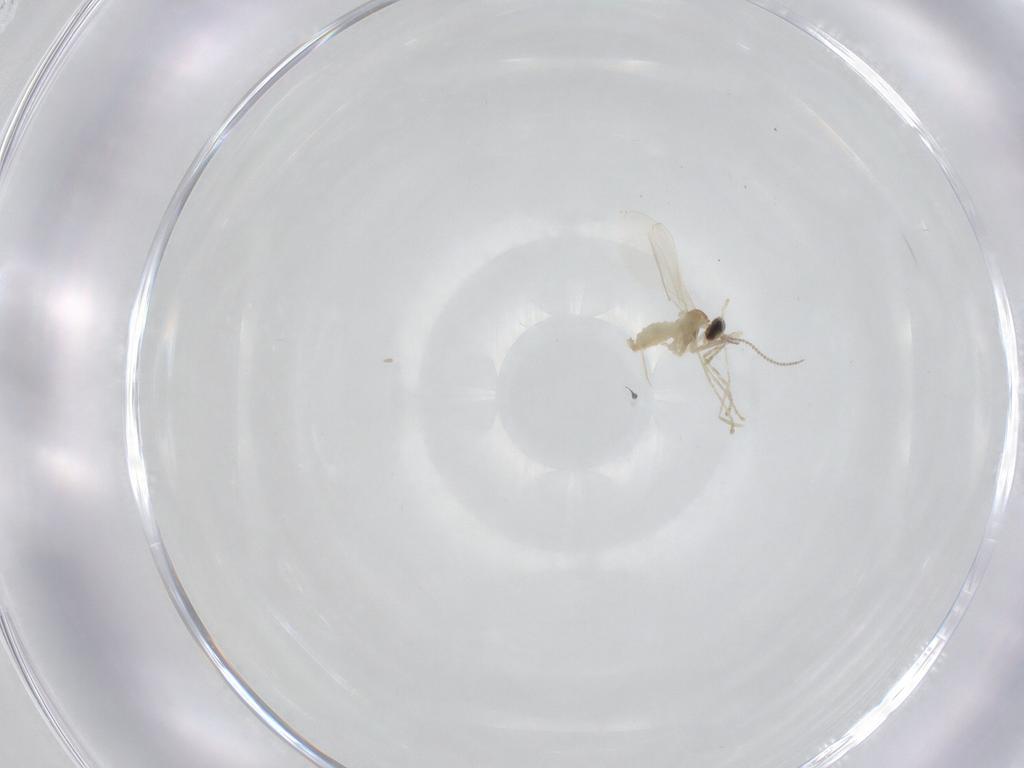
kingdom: Animalia
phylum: Arthropoda
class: Insecta
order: Diptera
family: Cecidomyiidae
